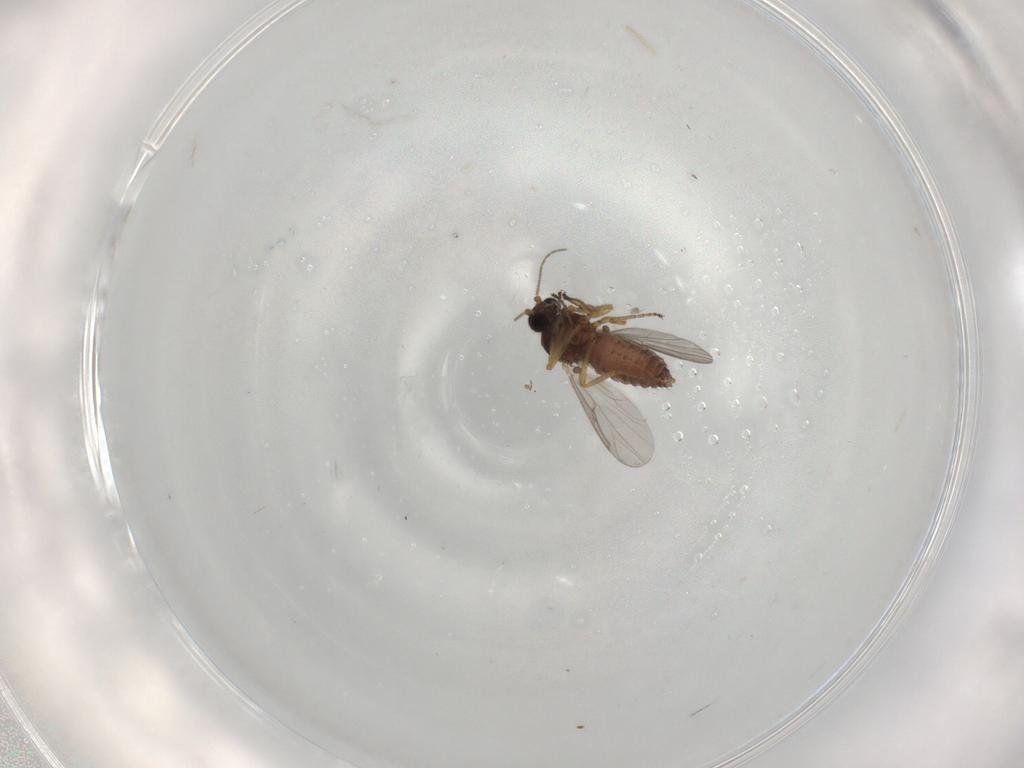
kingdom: Animalia
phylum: Arthropoda
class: Insecta
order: Diptera
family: Ceratopogonidae
